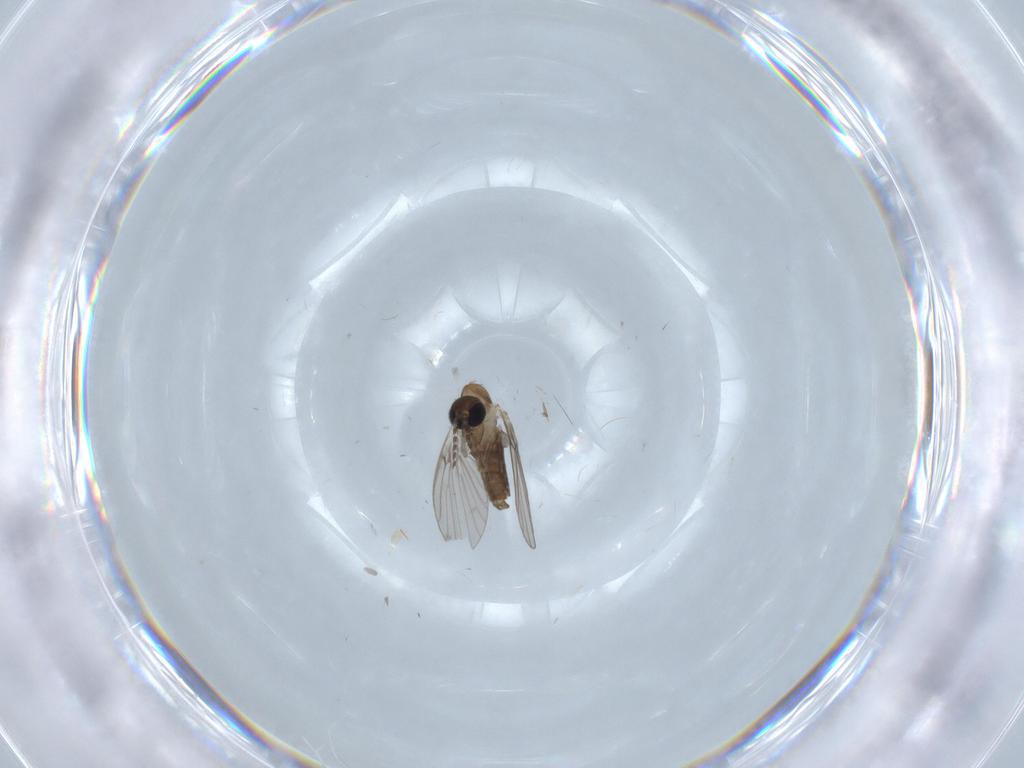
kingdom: Animalia
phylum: Arthropoda
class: Insecta
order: Diptera
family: Psychodidae
